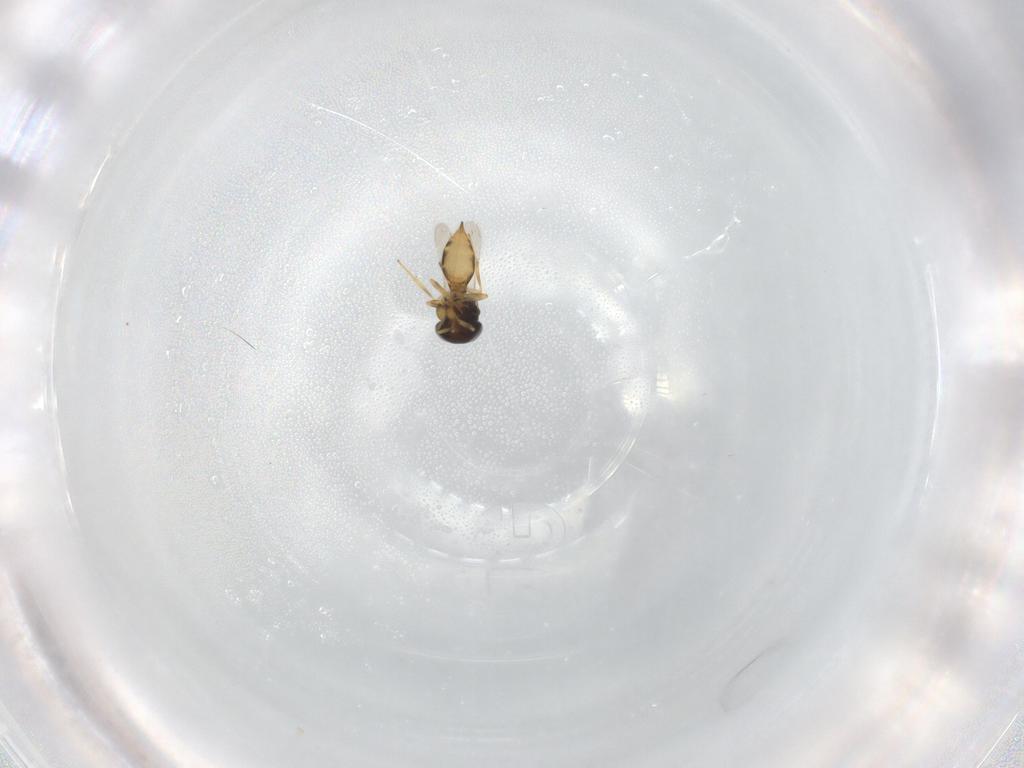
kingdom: Animalia
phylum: Arthropoda
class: Insecta
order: Hymenoptera
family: Scelionidae
